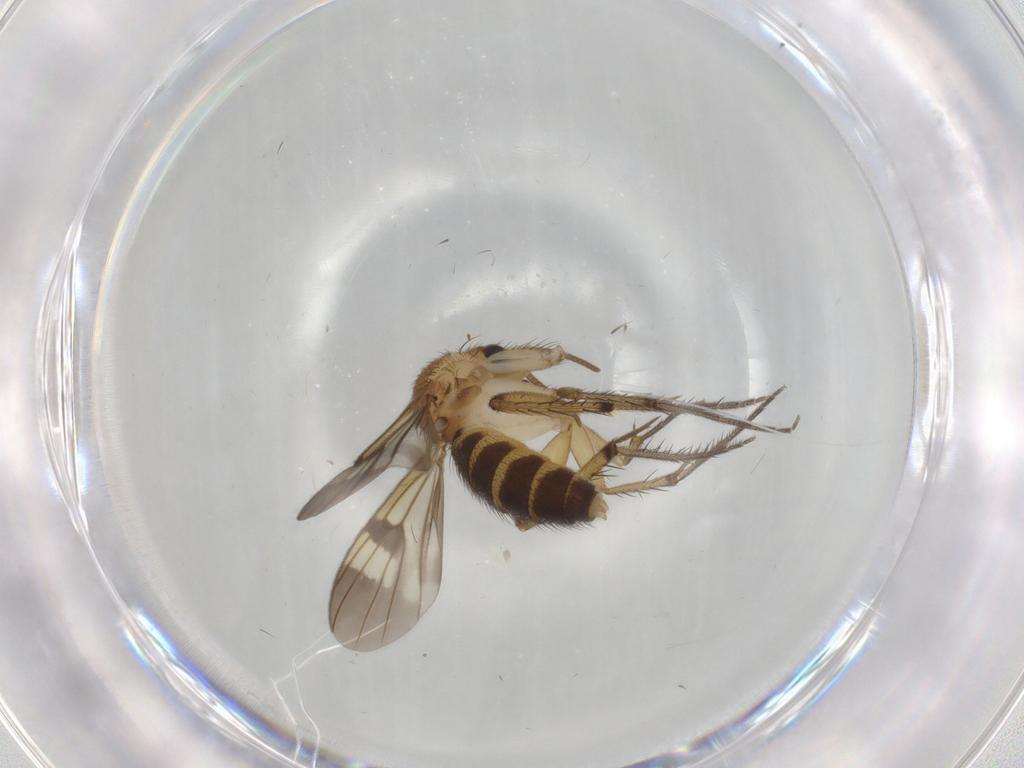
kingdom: Animalia
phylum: Arthropoda
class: Insecta
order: Diptera
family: Mycetophilidae
